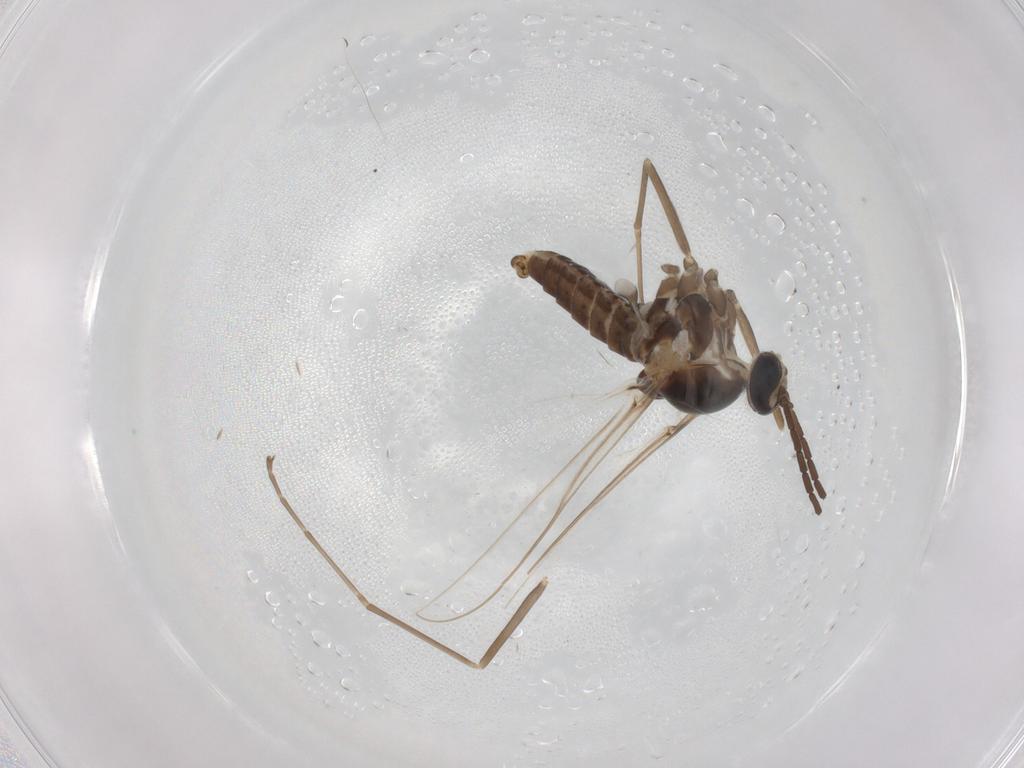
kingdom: Animalia
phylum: Arthropoda
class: Insecta
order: Diptera
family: Cecidomyiidae
